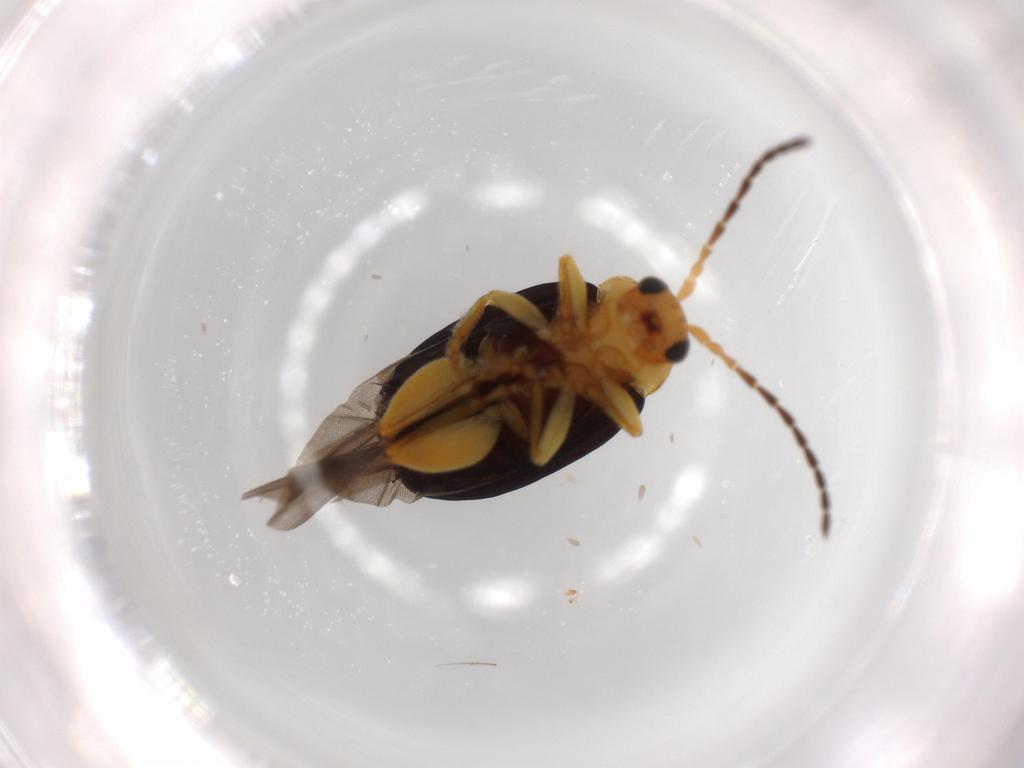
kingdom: Animalia
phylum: Arthropoda
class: Insecta
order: Coleoptera
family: Chrysomelidae
